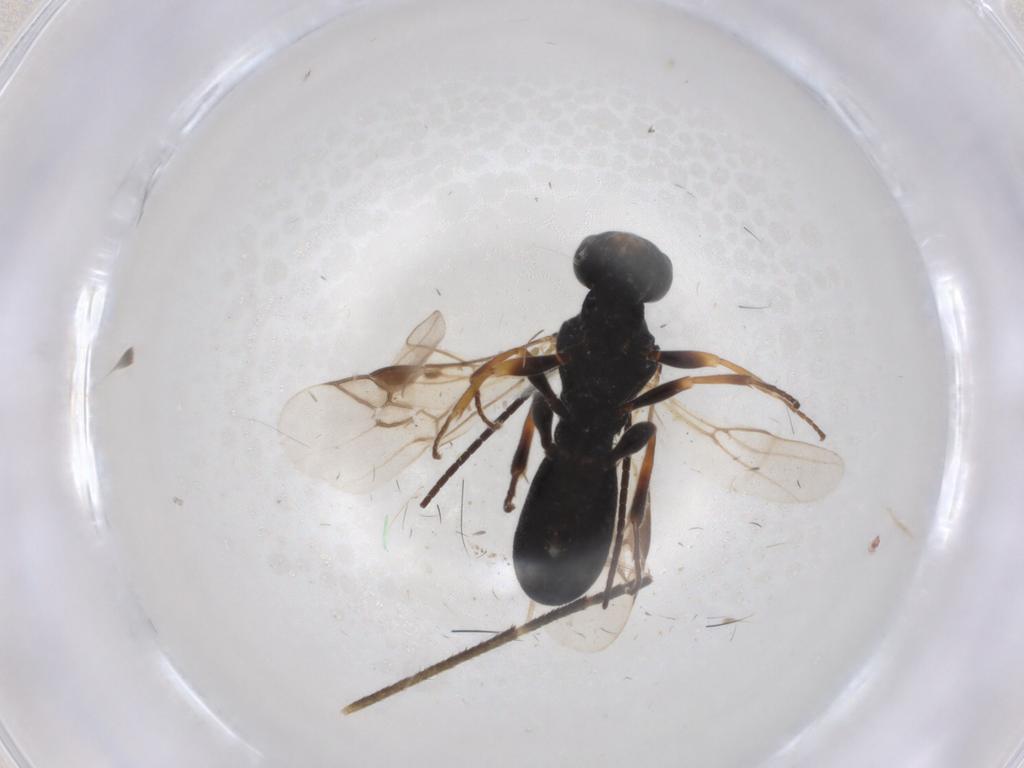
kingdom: Animalia
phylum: Arthropoda
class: Insecta
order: Hymenoptera
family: Braconidae
